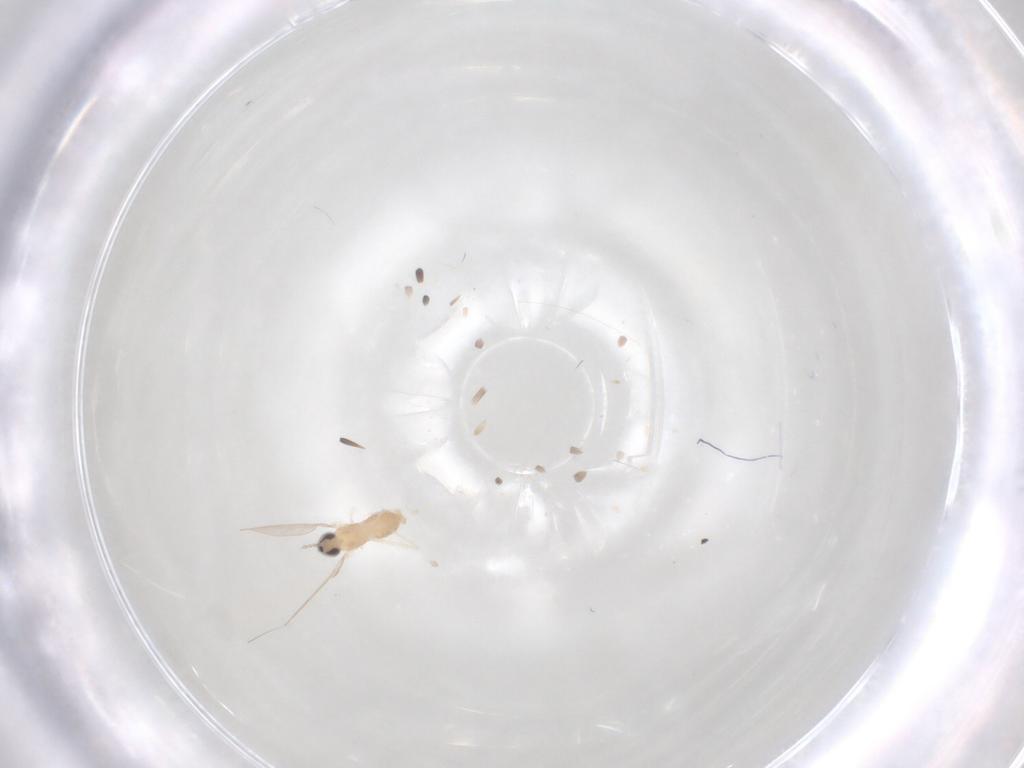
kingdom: Animalia
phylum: Arthropoda
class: Insecta
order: Diptera
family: Cecidomyiidae
